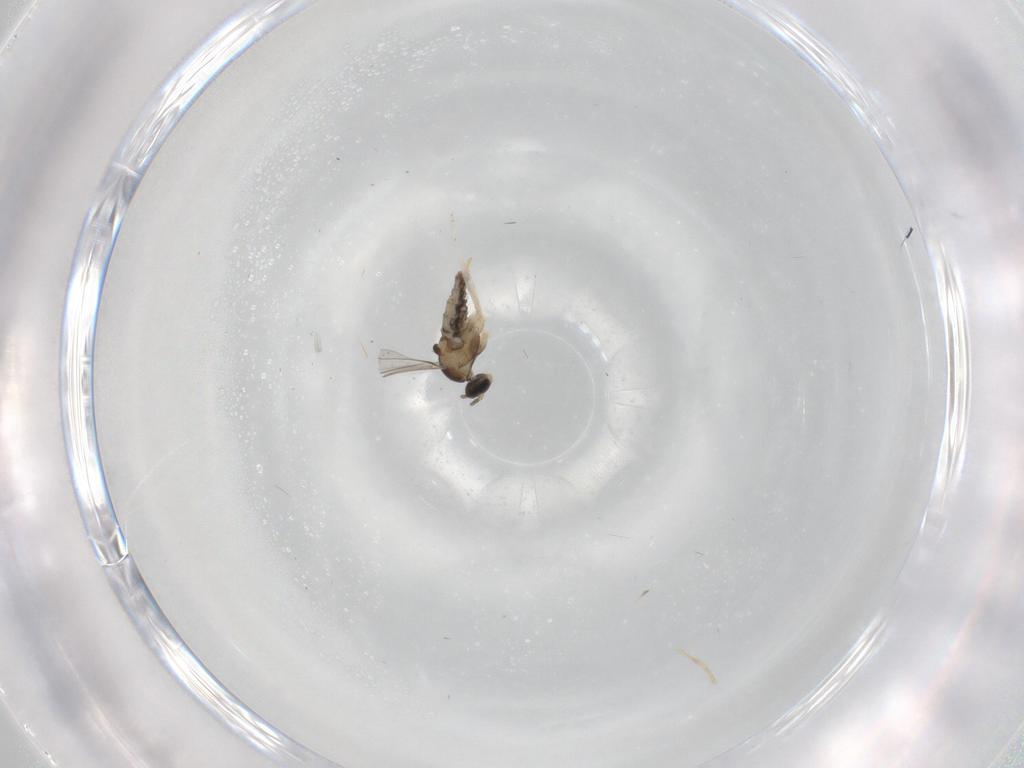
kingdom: Animalia
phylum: Arthropoda
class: Insecta
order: Diptera
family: Cecidomyiidae
